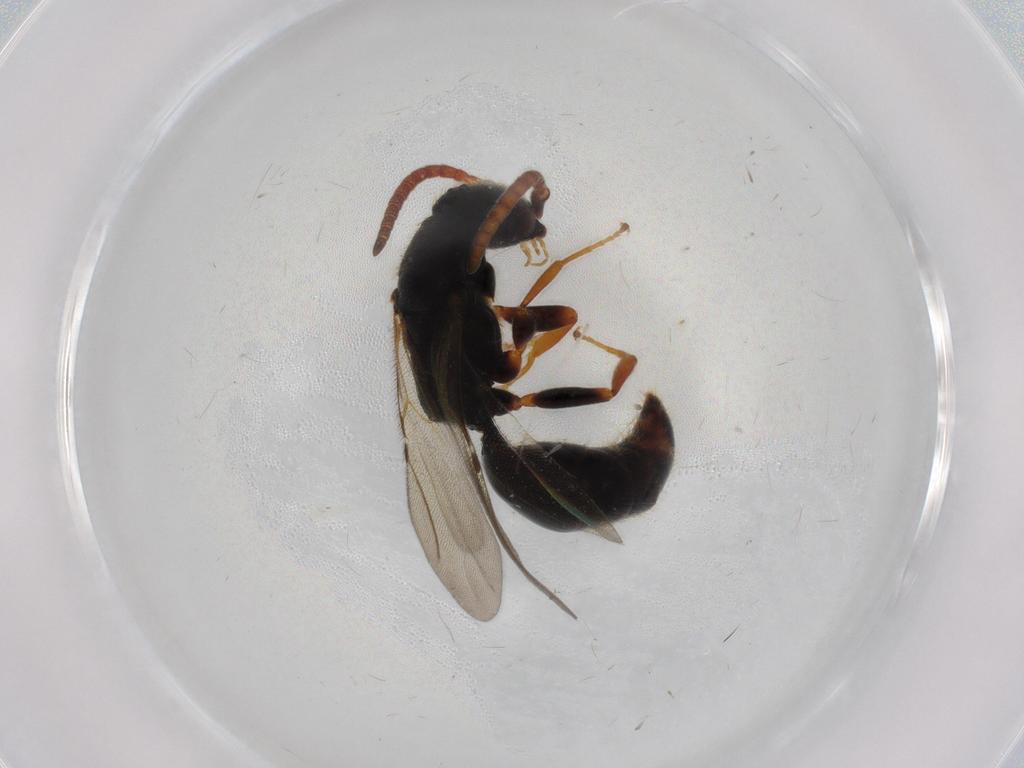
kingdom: Animalia
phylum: Arthropoda
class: Insecta
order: Hymenoptera
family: Bethylidae
